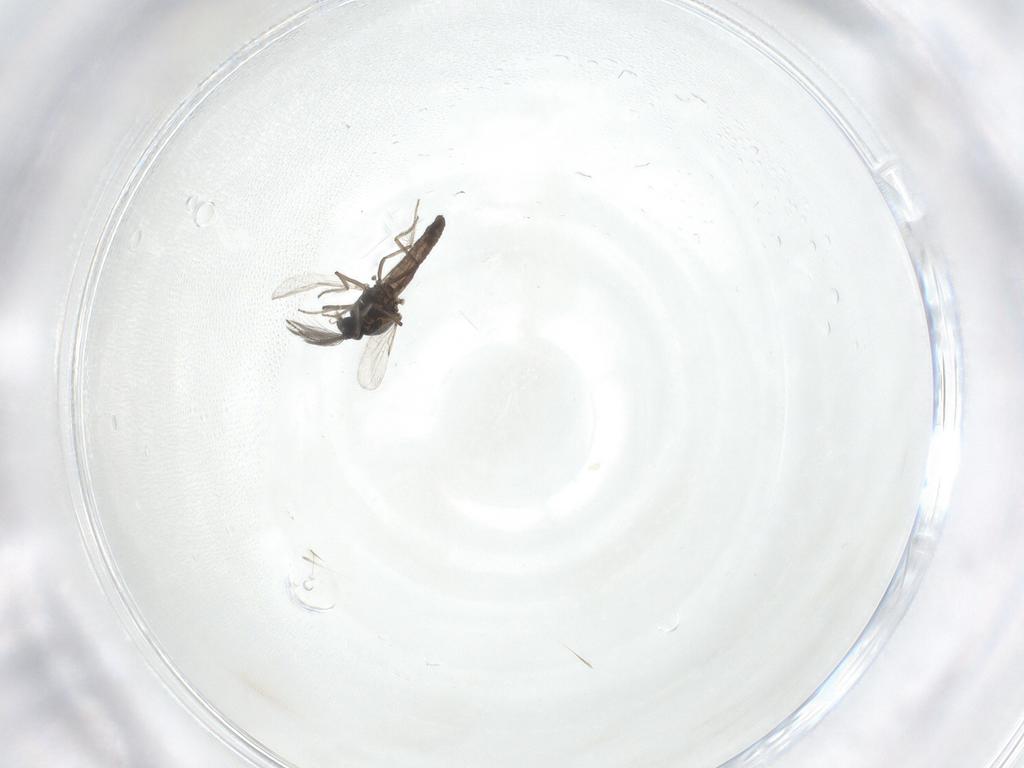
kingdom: Animalia
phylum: Arthropoda
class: Insecta
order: Diptera
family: Ceratopogonidae
